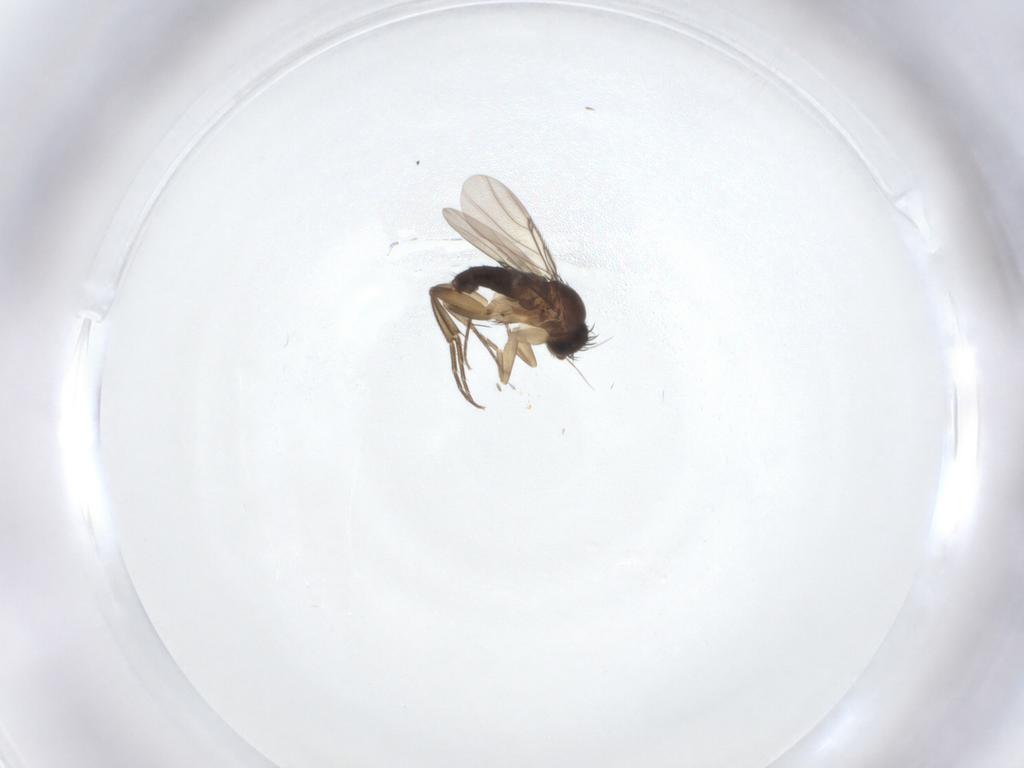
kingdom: Animalia
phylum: Arthropoda
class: Insecta
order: Diptera
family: Phoridae
